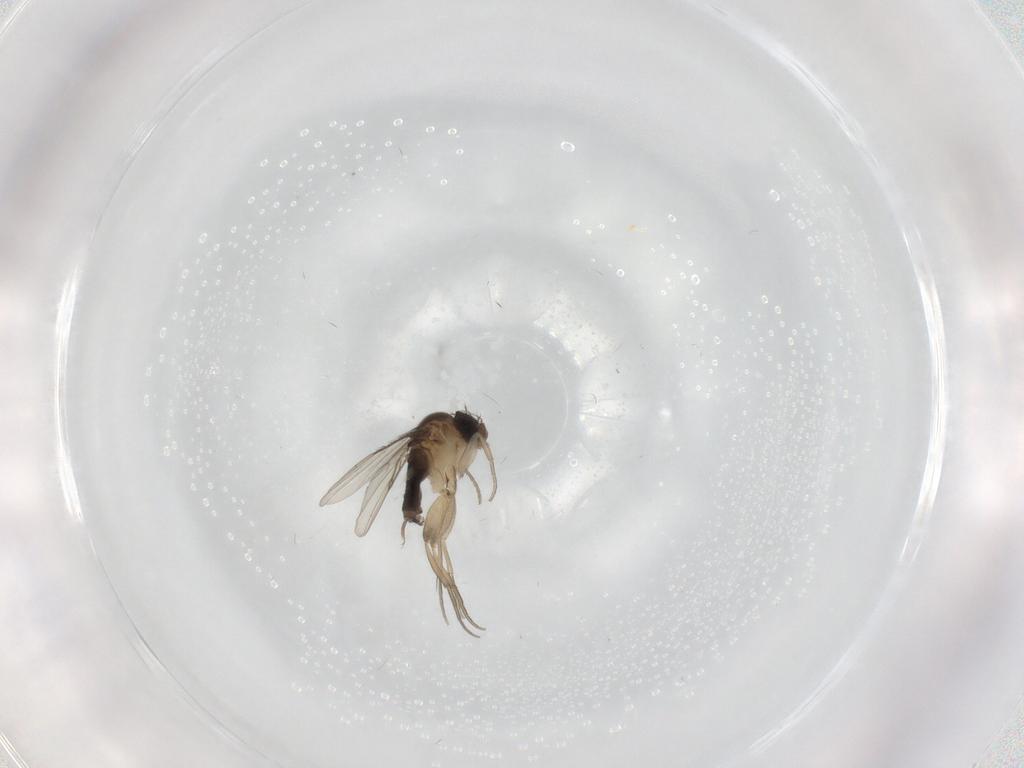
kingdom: Animalia
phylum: Arthropoda
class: Insecta
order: Diptera
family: Phoridae
